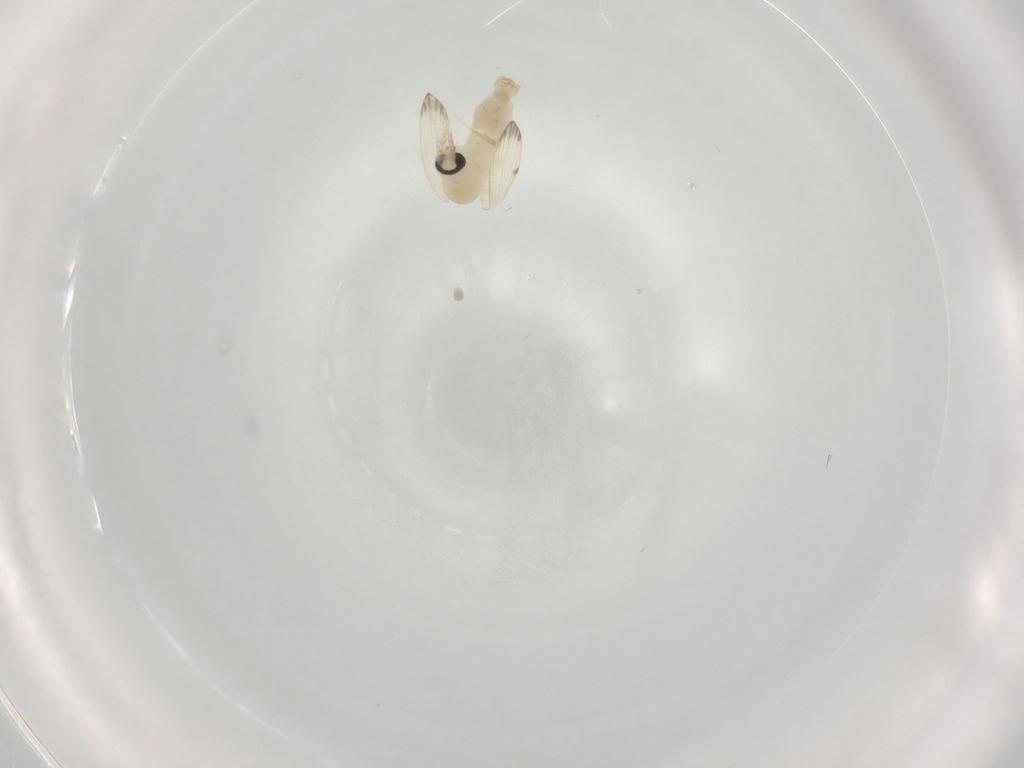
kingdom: Animalia
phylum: Arthropoda
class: Insecta
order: Diptera
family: Psychodidae
